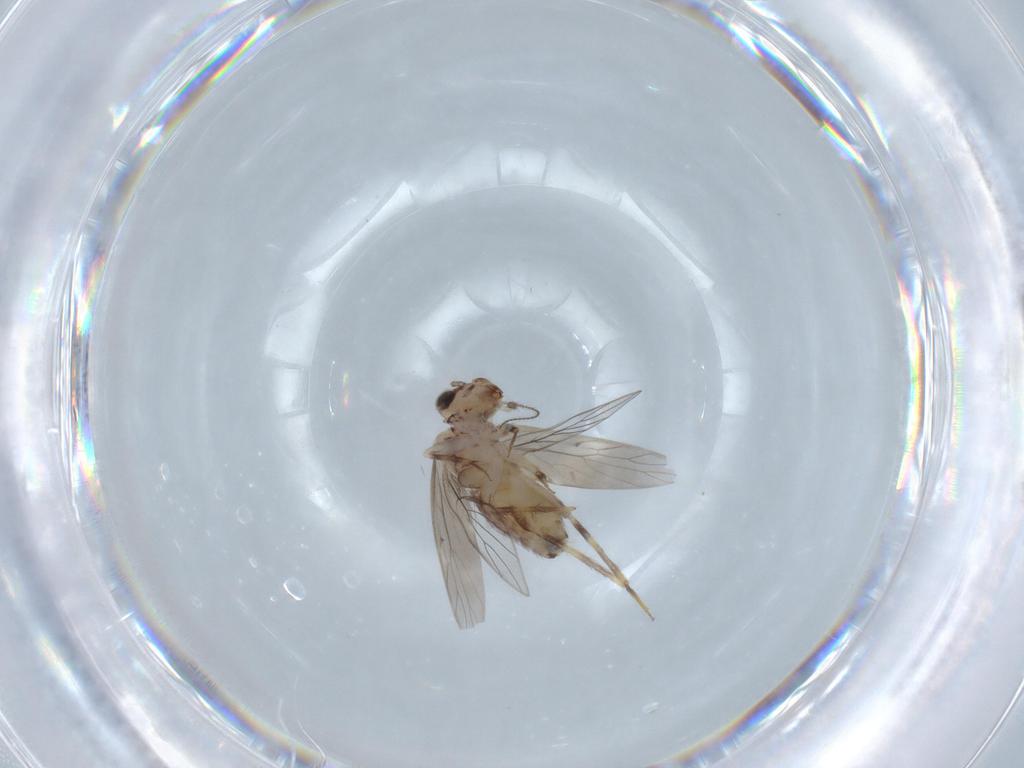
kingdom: Animalia
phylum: Arthropoda
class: Insecta
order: Psocodea
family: Lepidopsocidae
